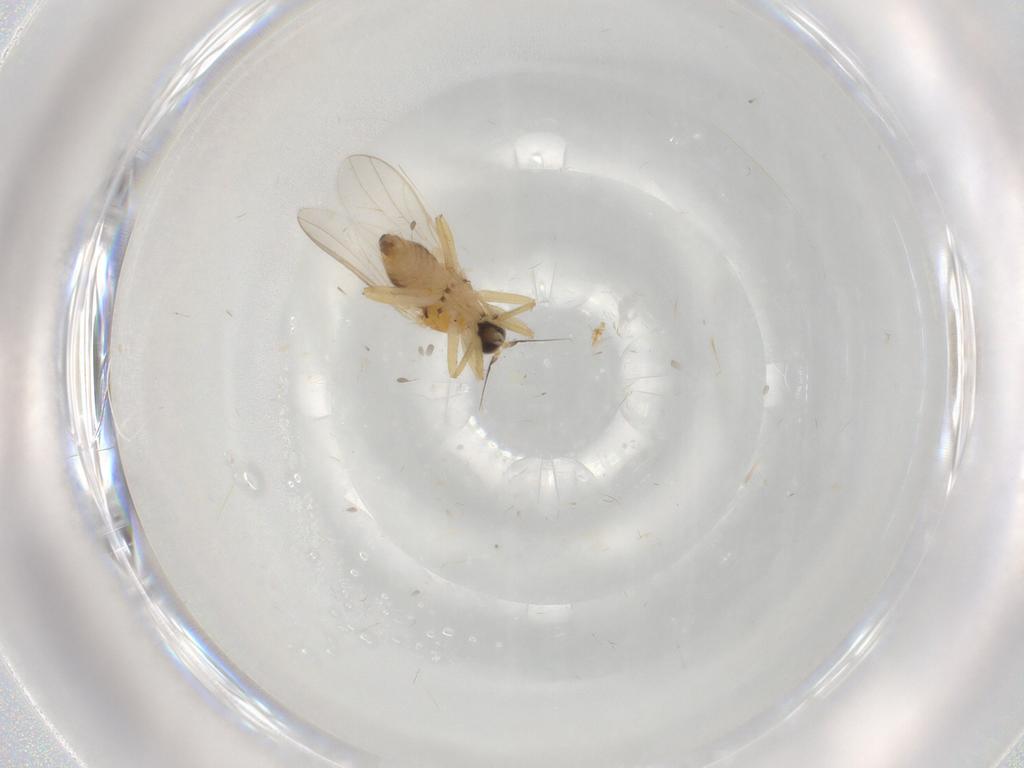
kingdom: Animalia
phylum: Arthropoda
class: Insecta
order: Diptera
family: Hybotidae
